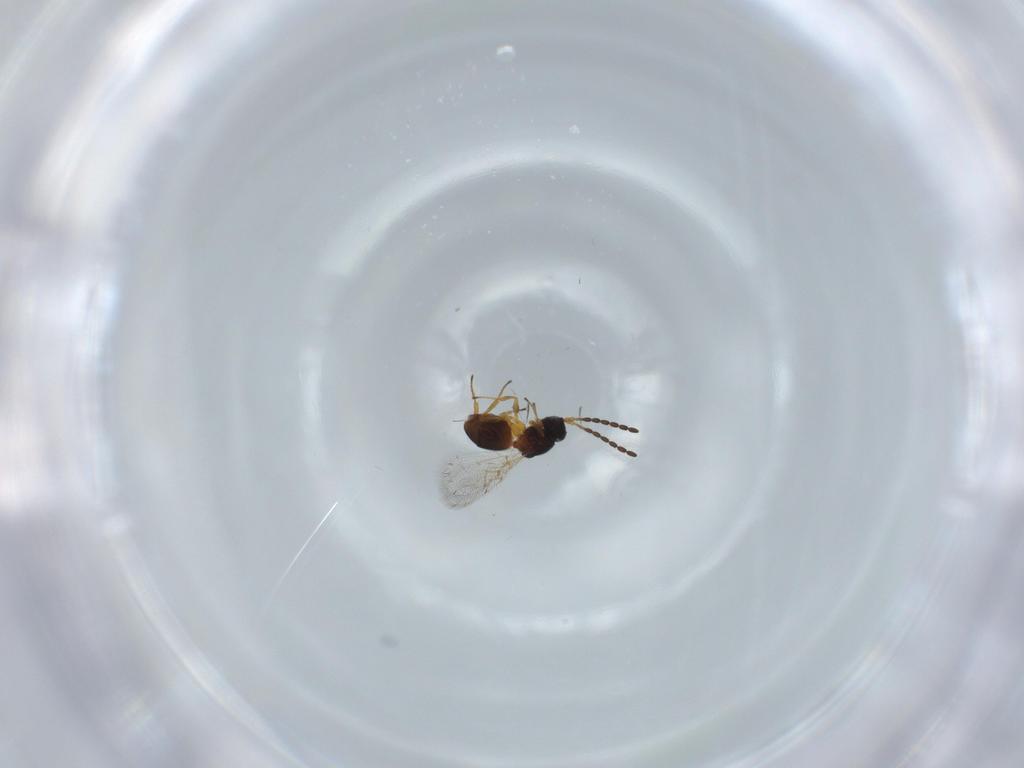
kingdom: Animalia
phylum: Arthropoda
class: Insecta
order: Hymenoptera
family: Figitidae
